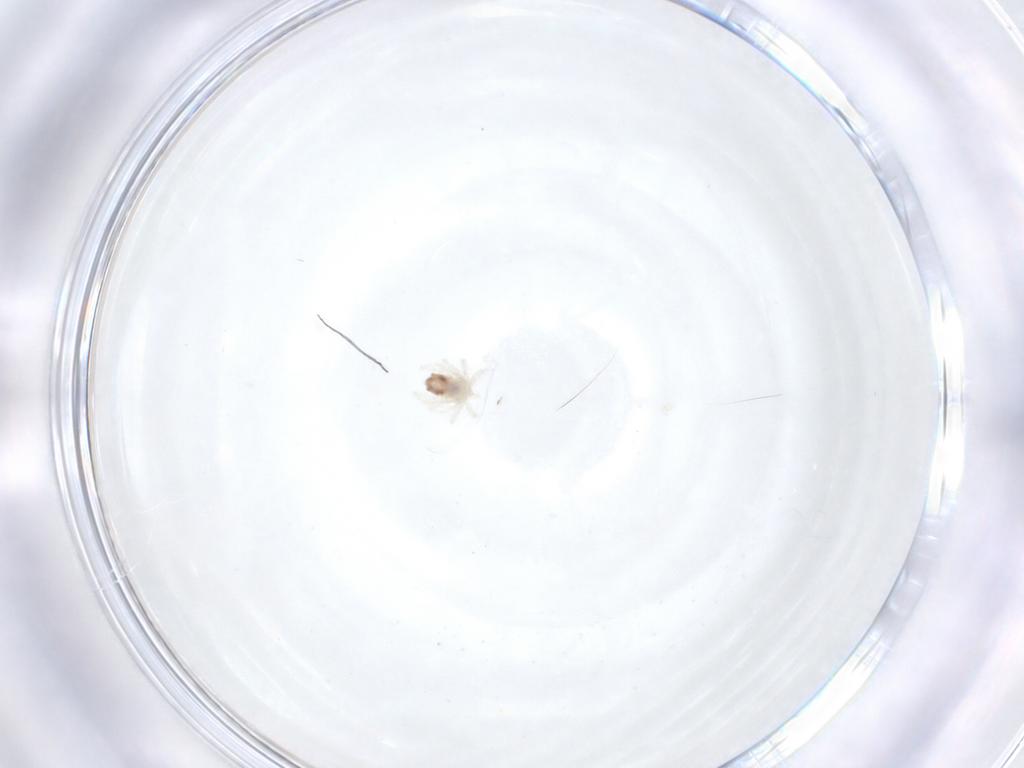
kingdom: Animalia
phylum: Arthropoda
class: Arachnida
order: Trombidiformes
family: Anystidae
